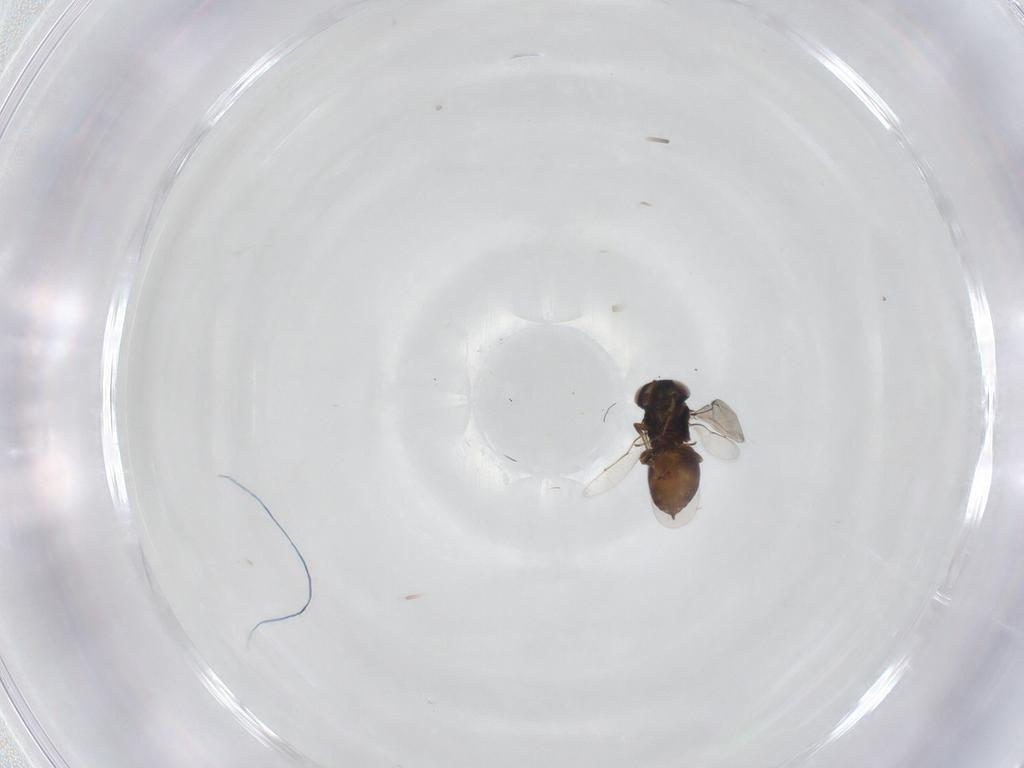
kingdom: Animalia
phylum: Arthropoda
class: Insecta
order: Hymenoptera
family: Eunotidae
